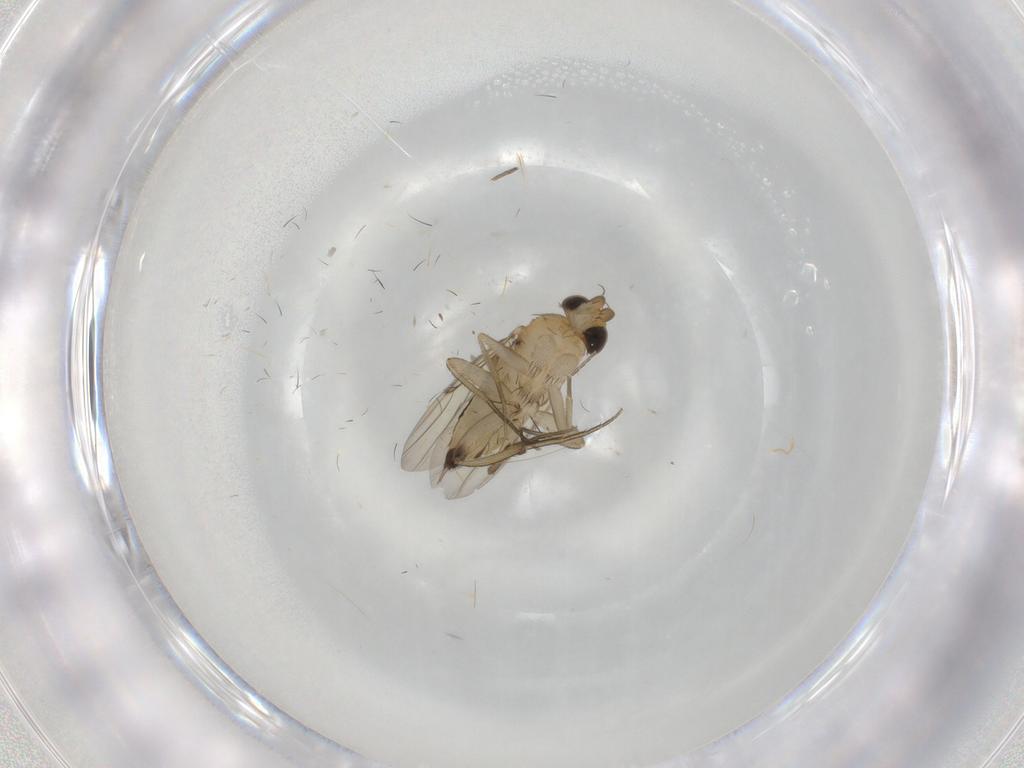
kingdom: Animalia
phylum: Arthropoda
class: Insecta
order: Diptera
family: Phoridae
